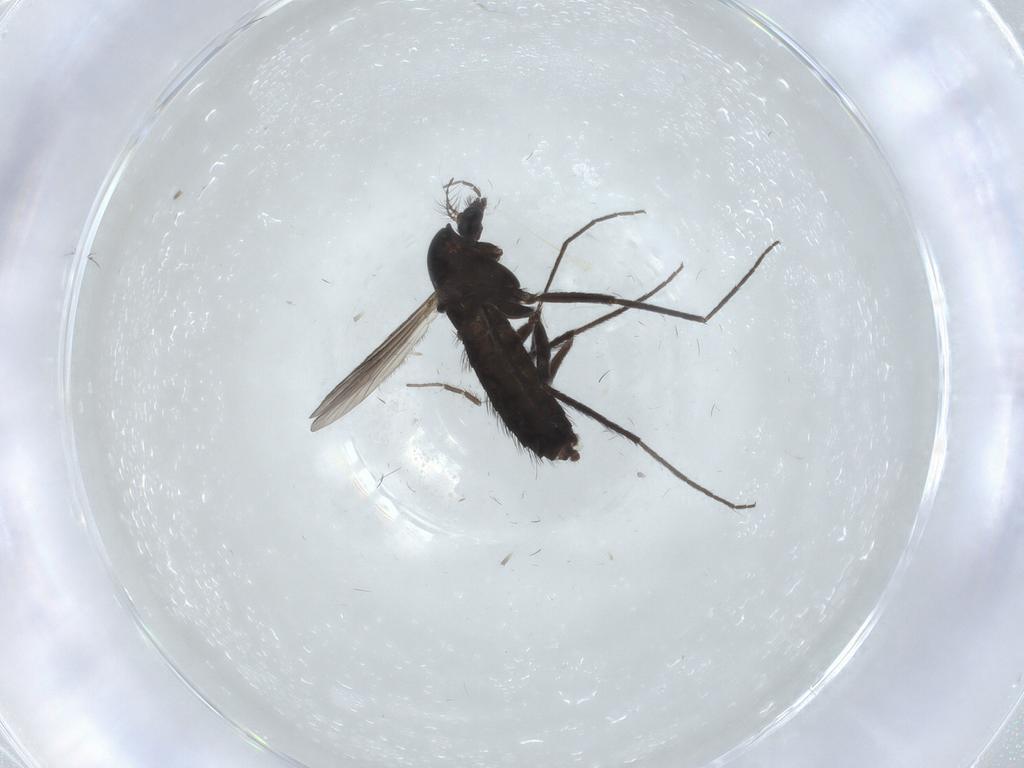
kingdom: Animalia
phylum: Arthropoda
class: Insecta
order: Diptera
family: Chironomidae
